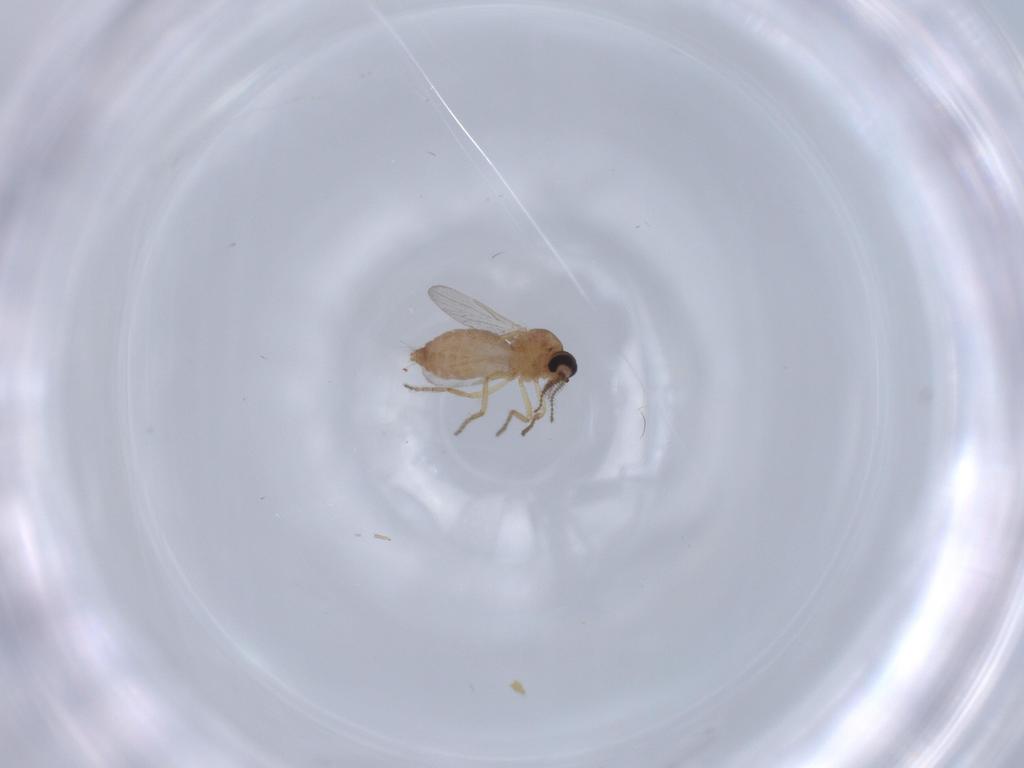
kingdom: Animalia
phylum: Arthropoda
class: Insecta
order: Diptera
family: Ceratopogonidae
